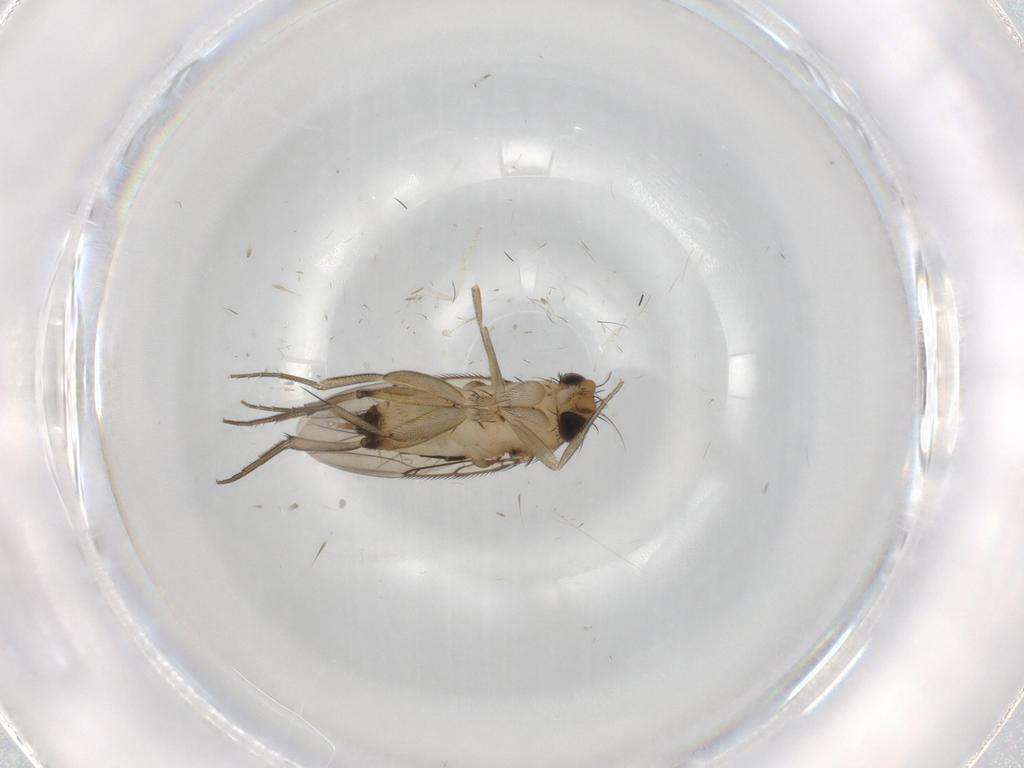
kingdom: Animalia
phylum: Arthropoda
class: Insecta
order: Diptera
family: Phoridae
